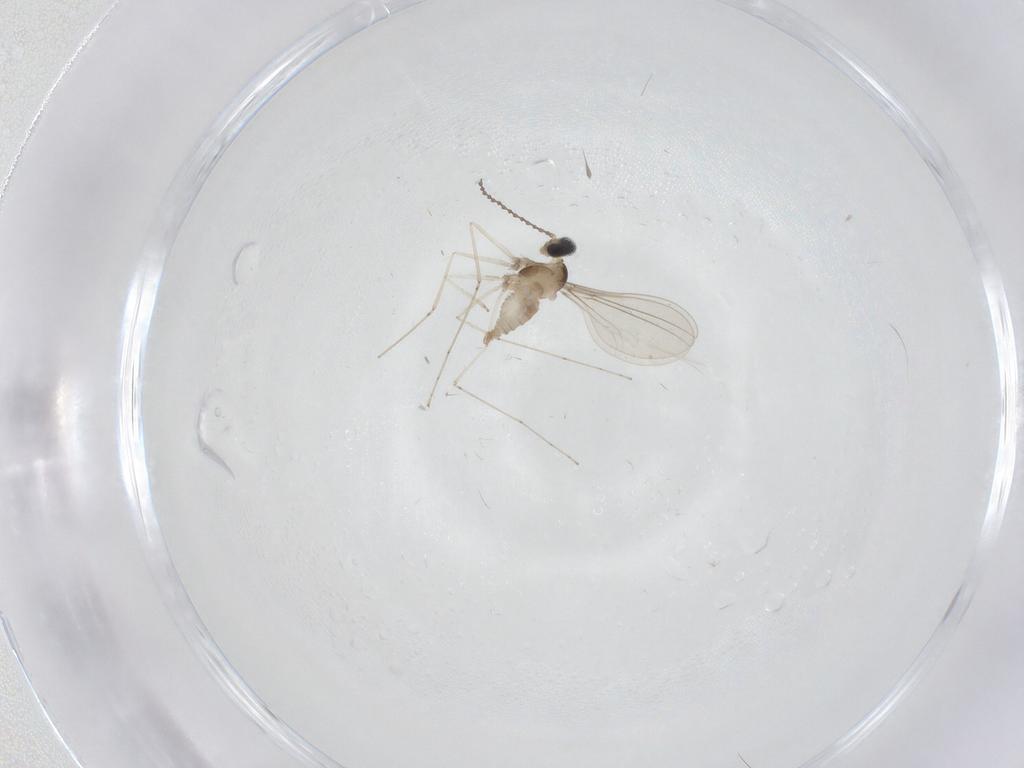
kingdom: Animalia
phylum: Arthropoda
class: Insecta
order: Diptera
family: Cecidomyiidae
